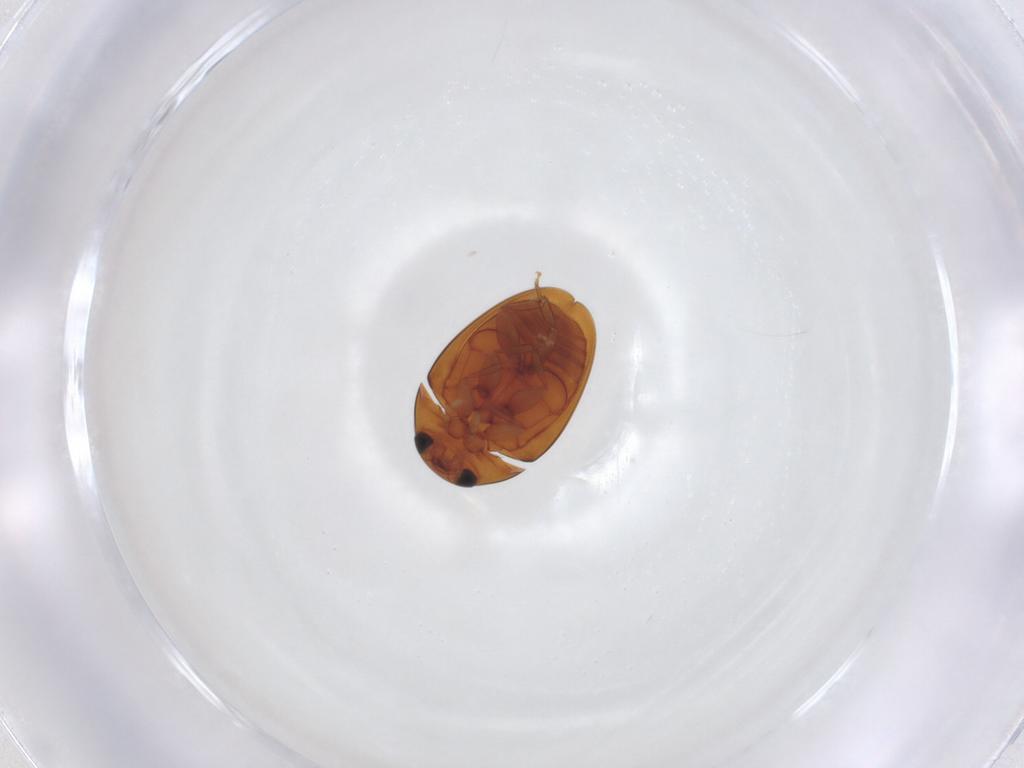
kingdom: Animalia
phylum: Arthropoda
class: Insecta
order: Coleoptera
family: Phalacridae
